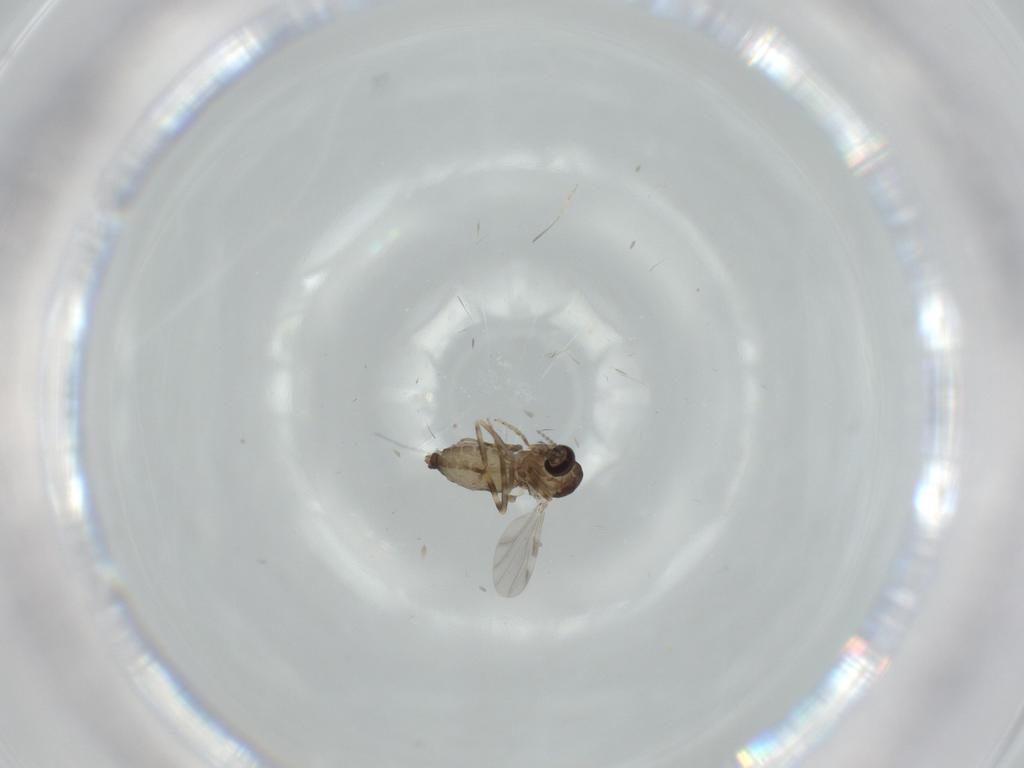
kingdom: Animalia
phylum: Arthropoda
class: Insecta
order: Diptera
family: Ceratopogonidae
